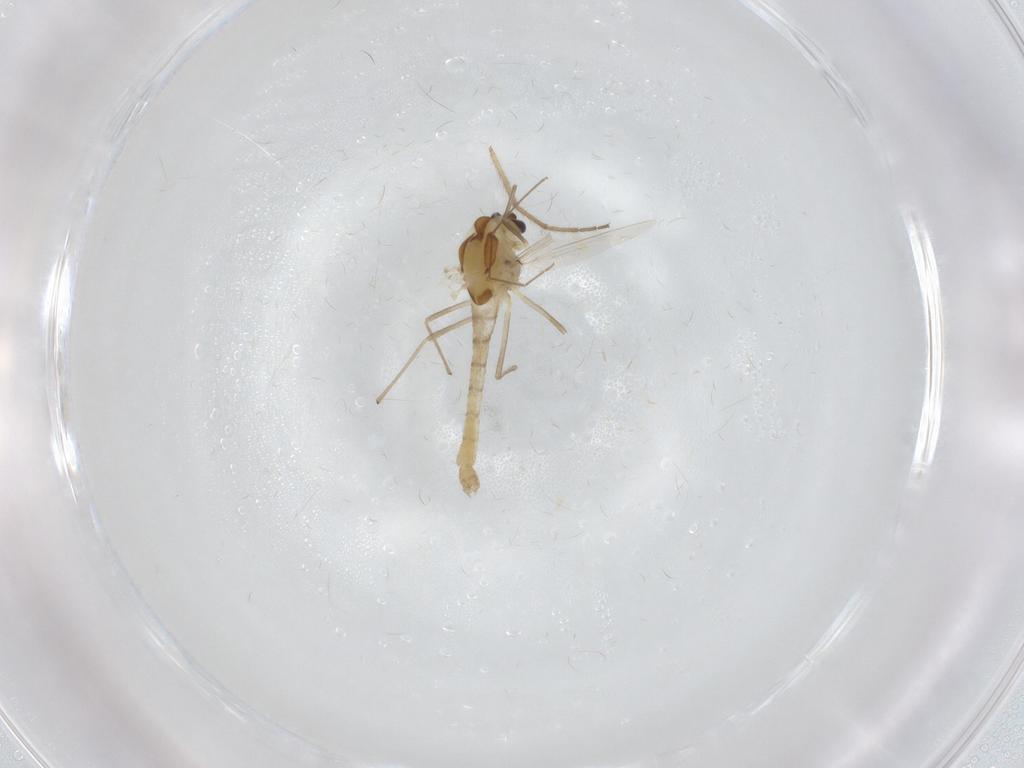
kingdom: Animalia
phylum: Arthropoda
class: Insecta
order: Diptera
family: Chironomidae
